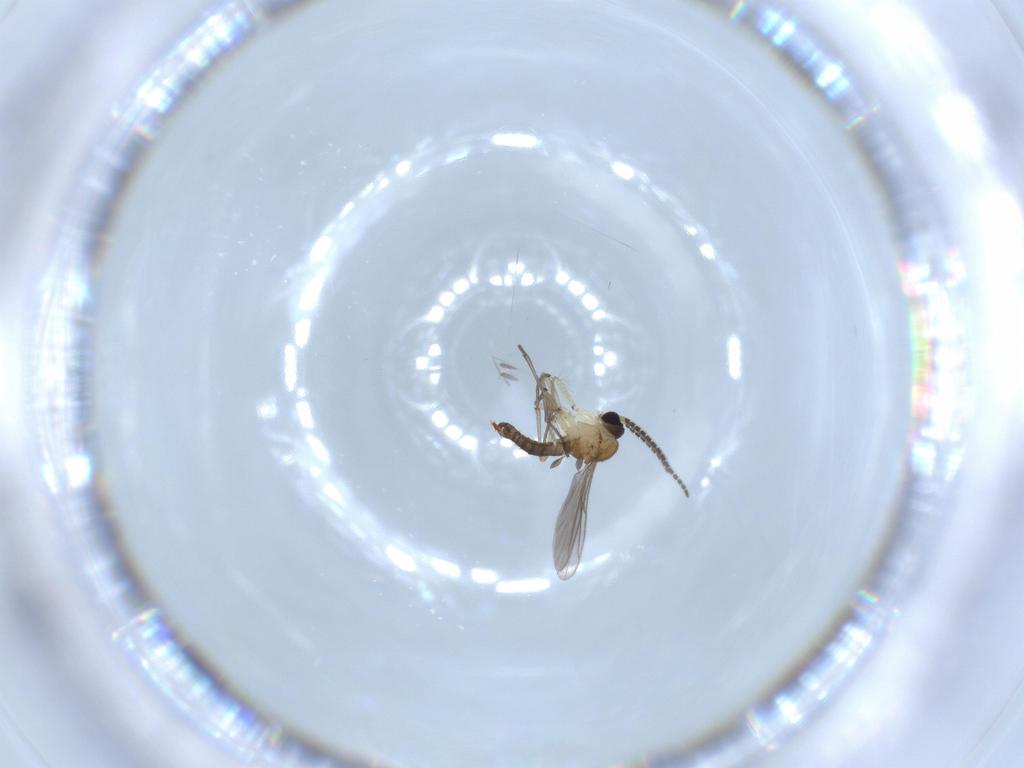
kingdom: Animalia
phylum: Arthropoda
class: Insecta
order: Diptera
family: Sciaridae
